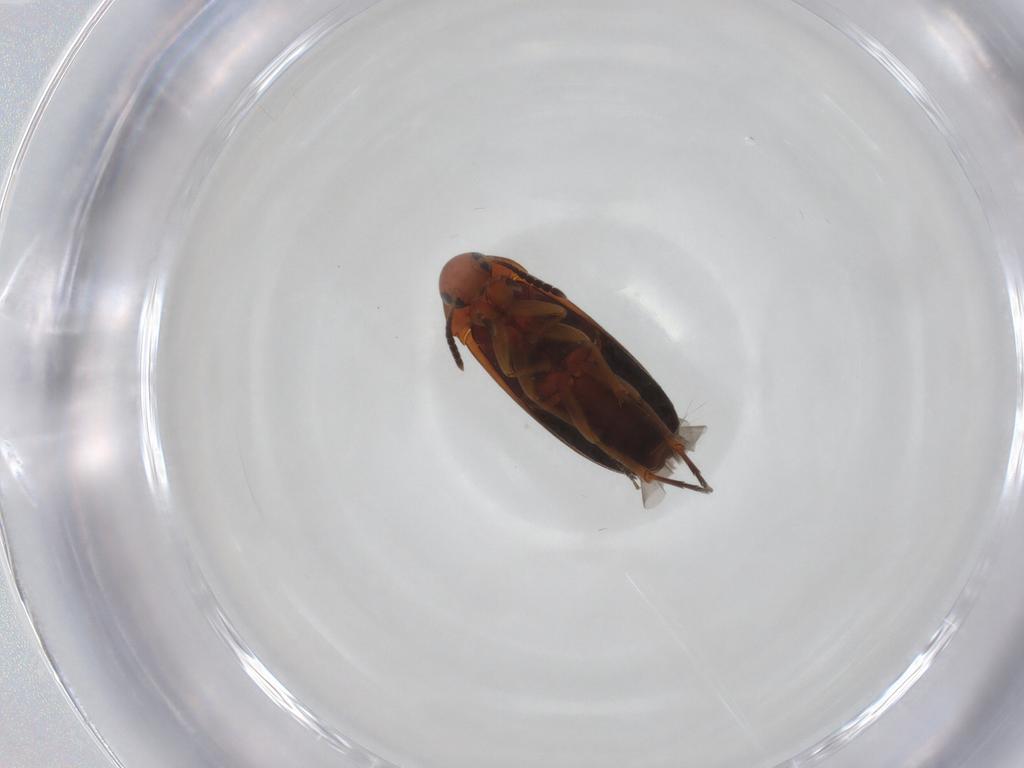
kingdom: Animalia
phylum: Arthropoda
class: Insecta
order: Coleoptera
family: Scraptiidae
